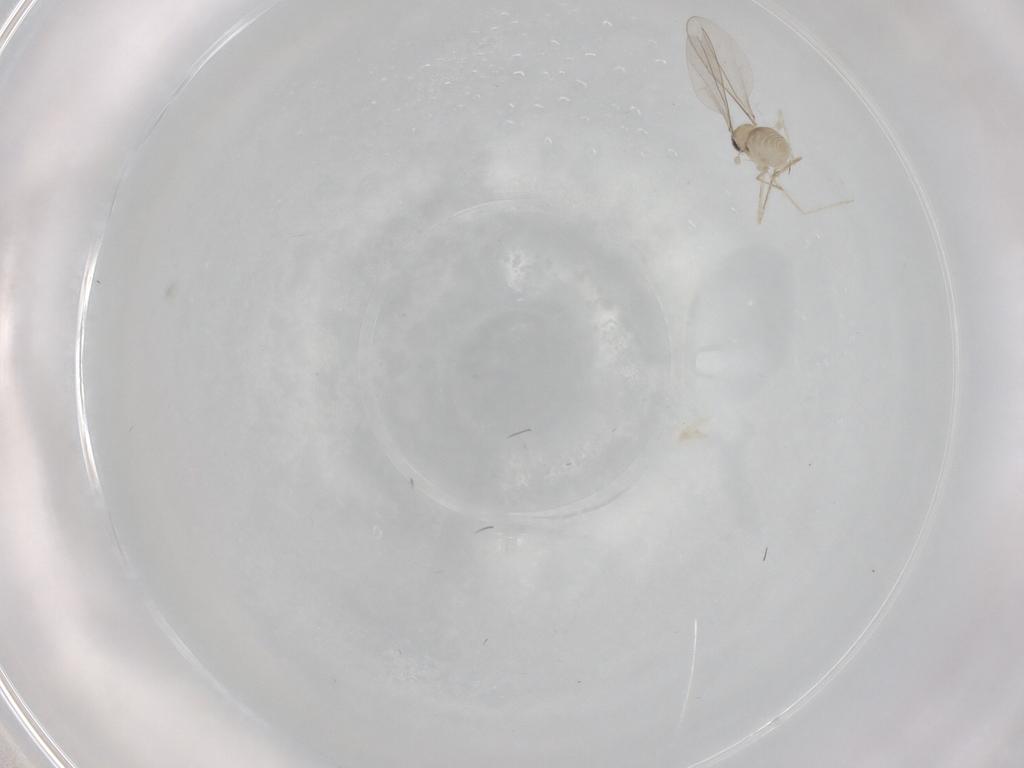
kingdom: Animalia
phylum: Arthropoda
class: Insecta
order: Diptera
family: Cecidomyiidae
